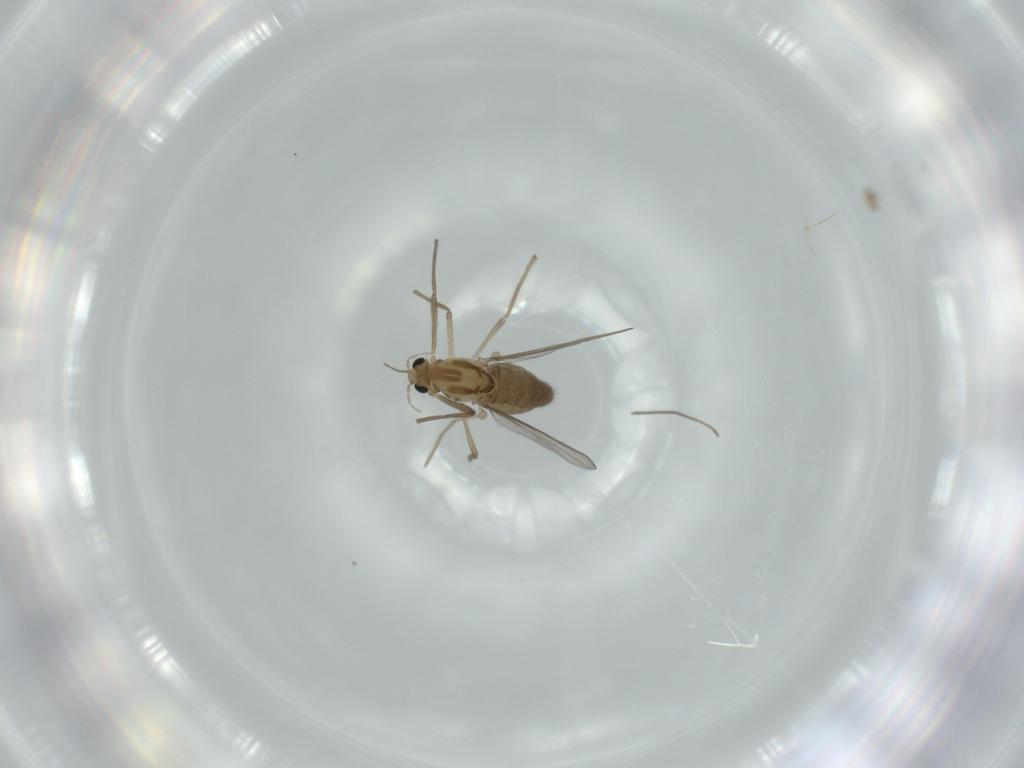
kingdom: Animalia
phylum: Arthropoda
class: Insecta
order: Diptera
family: Chironomidae
